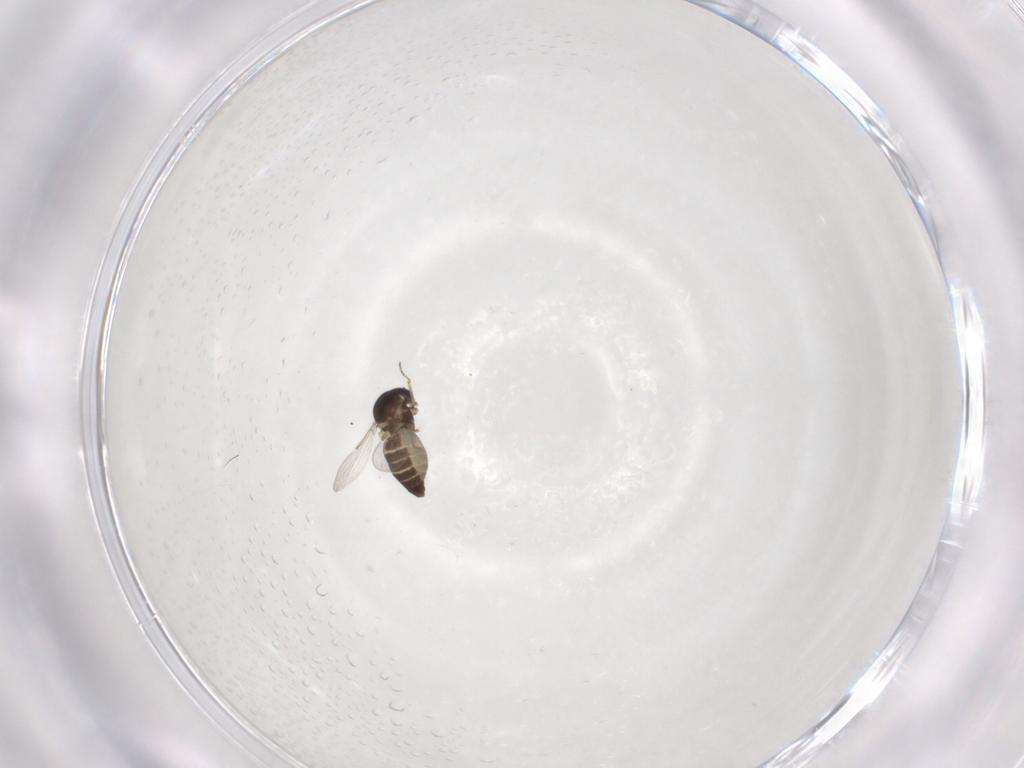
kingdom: Animalia
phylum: Arthropoda
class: Insecta
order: Diptera
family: Ceratopogonidae
